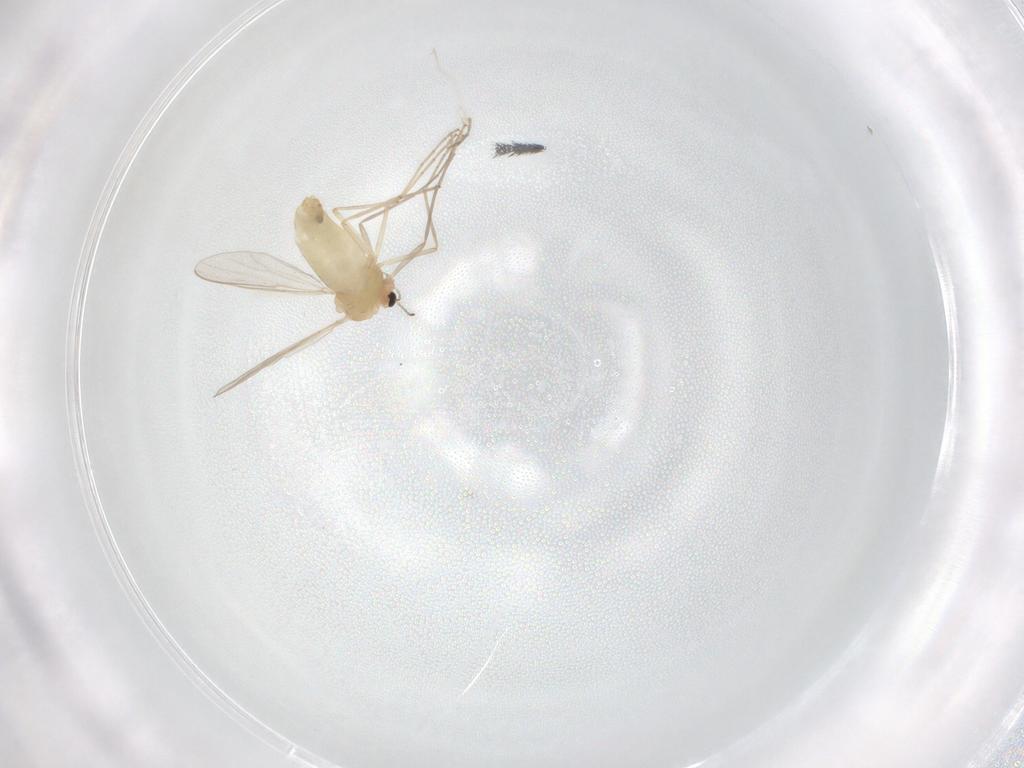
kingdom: Animalia
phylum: Arthropoda
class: Insecta
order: Diptera
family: Chironomidae
